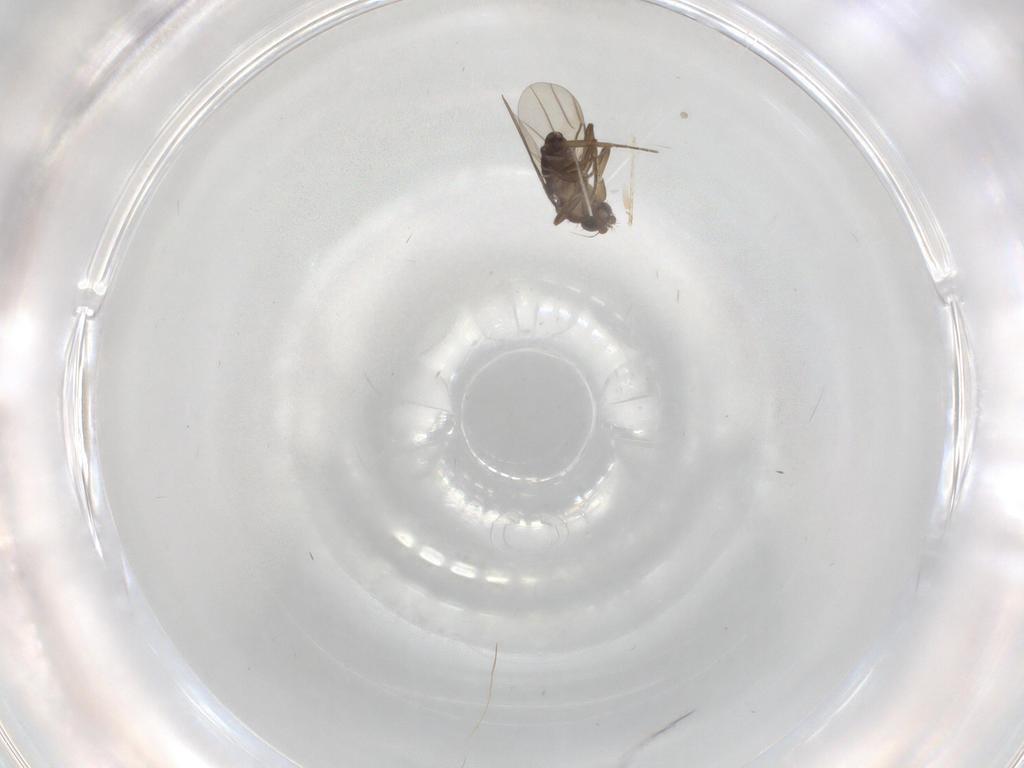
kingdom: Animalia
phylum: Arthropoda
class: Insecta
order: Diptera
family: Phoridae
